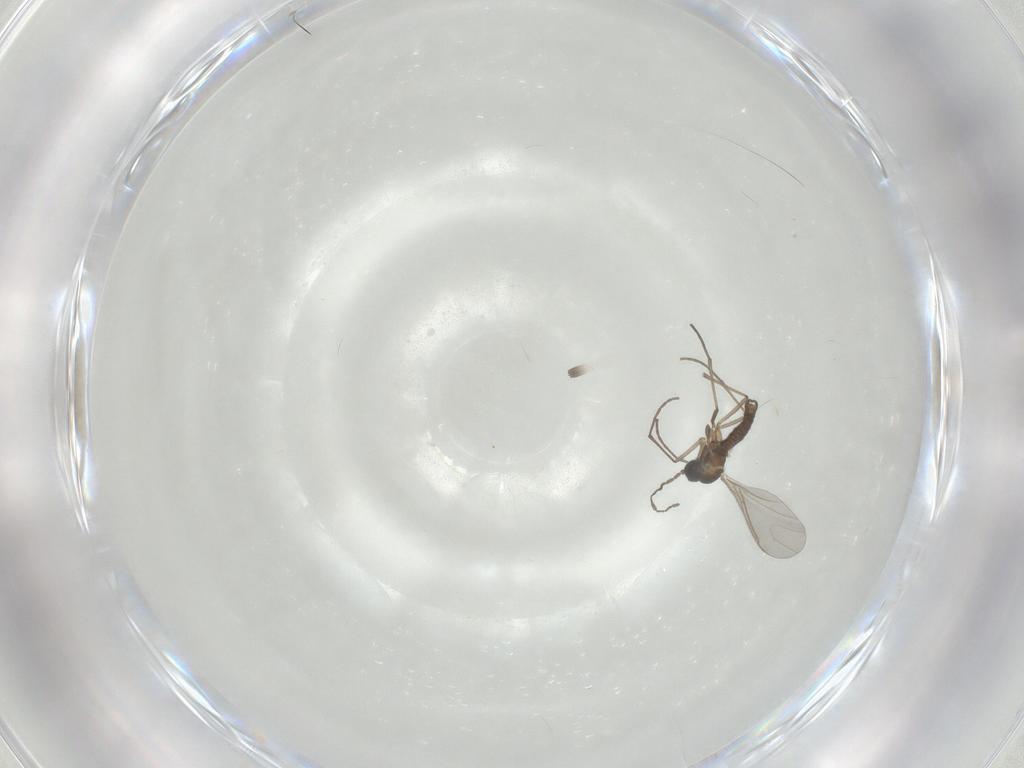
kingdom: Animalia
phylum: Arthropoda
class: Insecta
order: Diptera
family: Sciaridae
